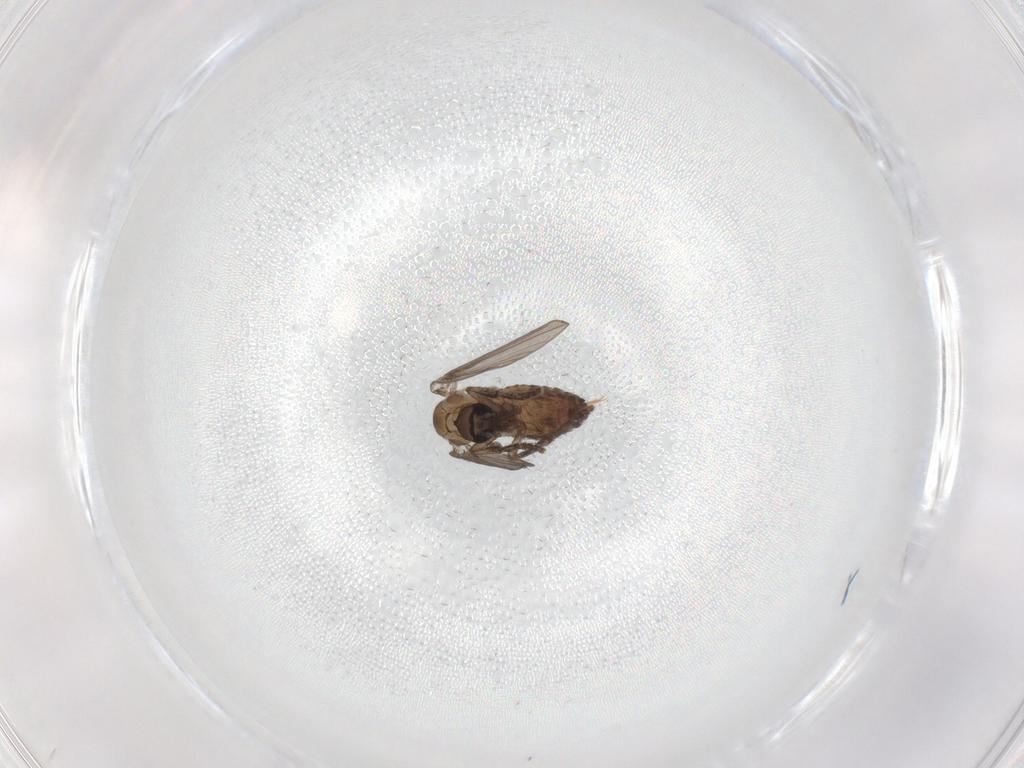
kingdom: Animalia
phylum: Arthropoda
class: Insecta
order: Diptera
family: Psychodidae
